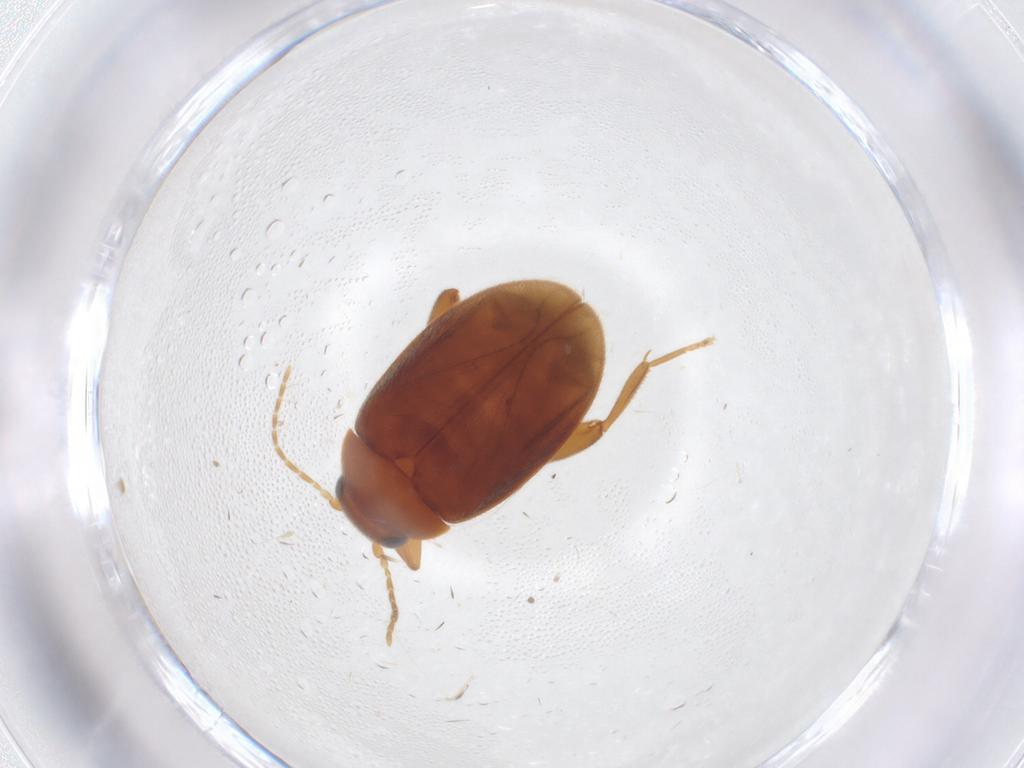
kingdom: Animalia
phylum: Arthropoda
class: Insecta
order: Coleoptera
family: Scirtidae
